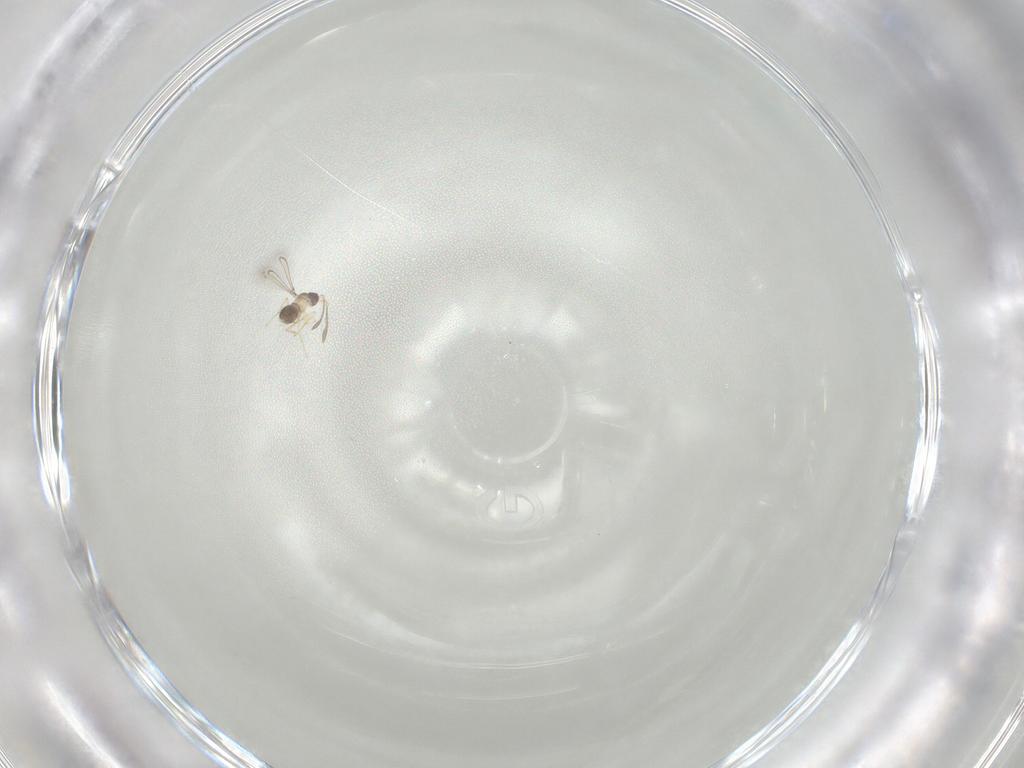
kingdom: Animalia
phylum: Arthropoda
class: Insecta
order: Hymenoptera
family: Mymaridae
